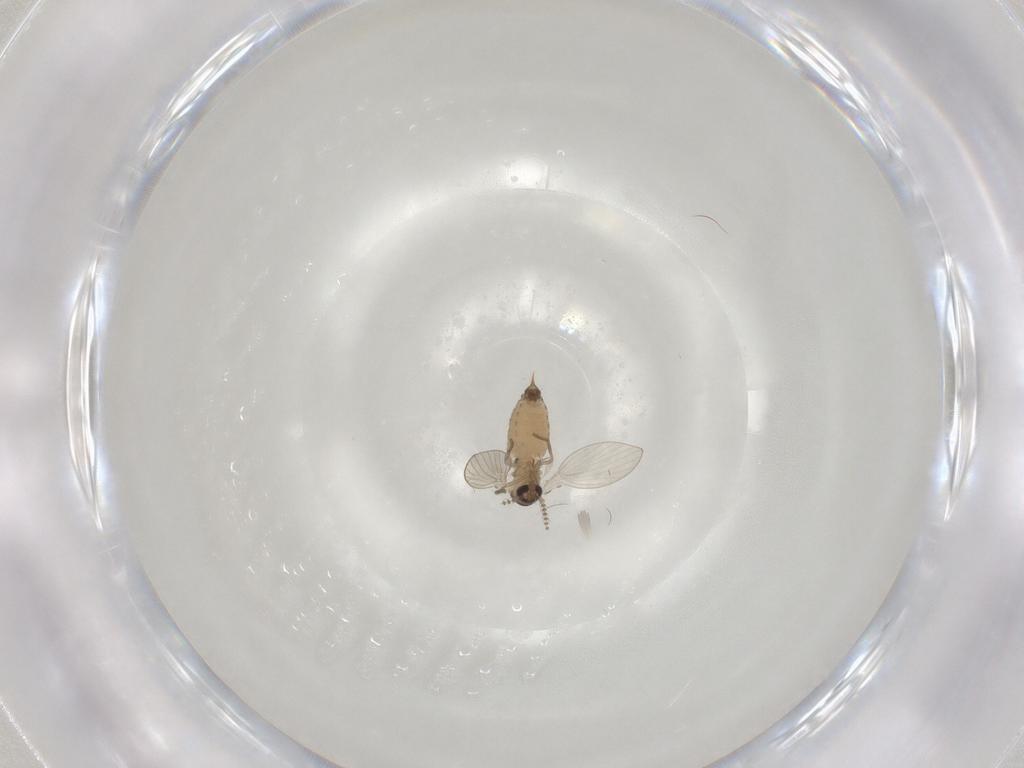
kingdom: Animalia
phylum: Arthropoda
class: Insecta
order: Diptera
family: Psychodidae
